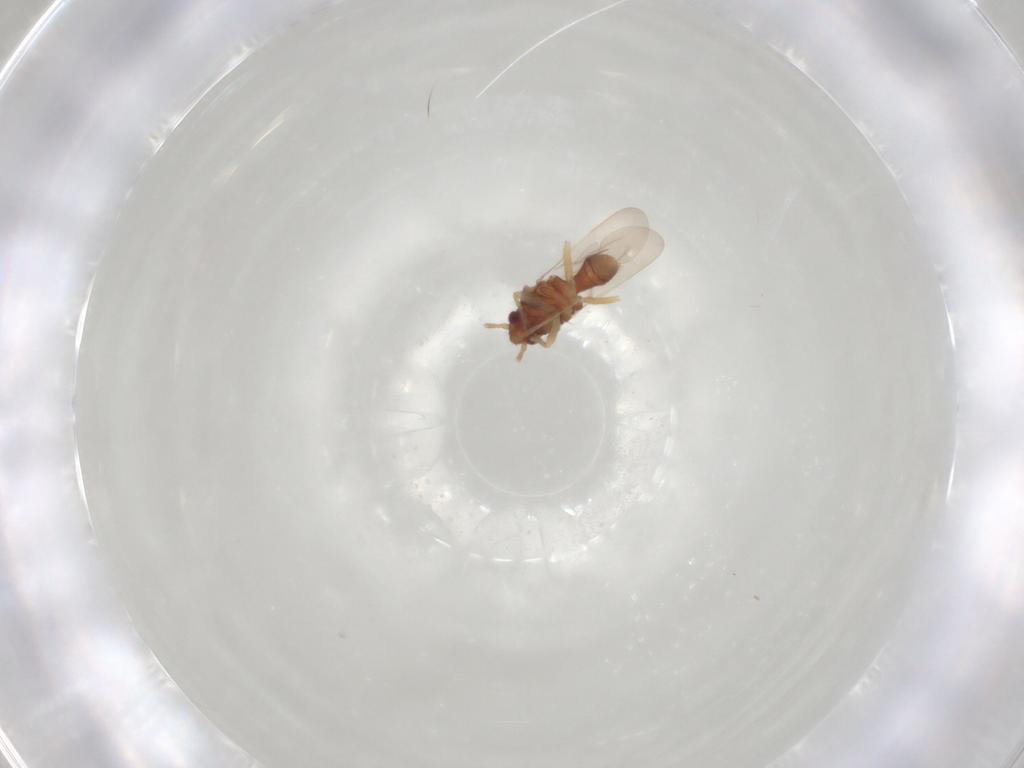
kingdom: Animalia
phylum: Arthropoda
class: Insecta
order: Hemiptera
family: Ceratocombidae
